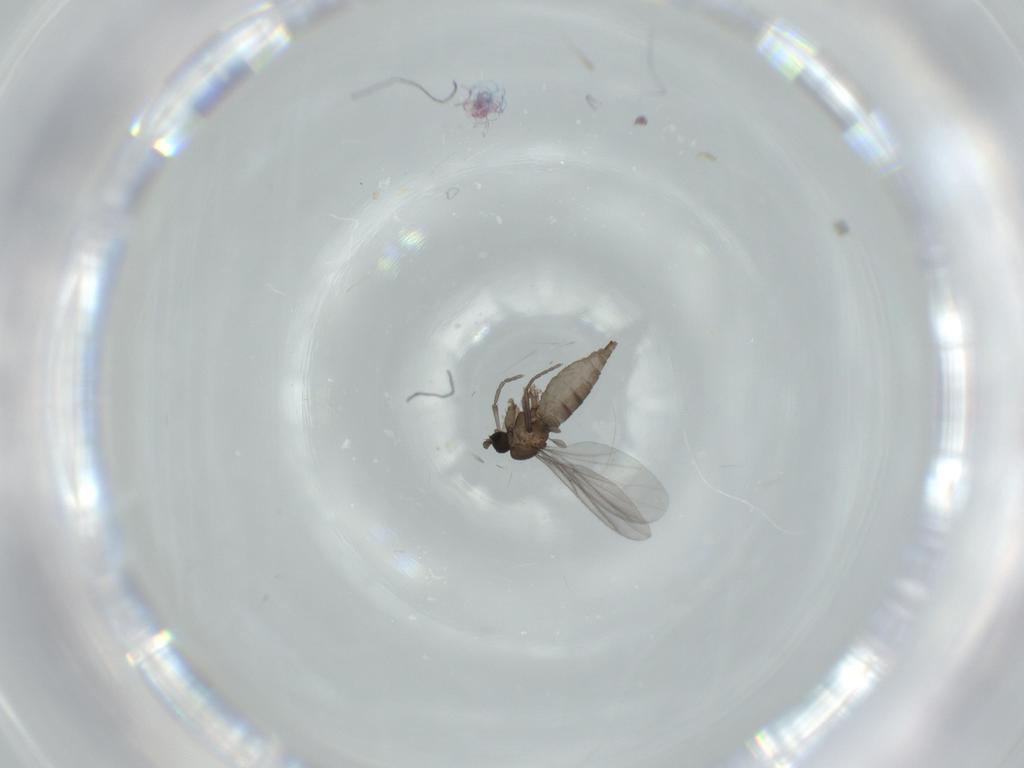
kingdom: Animalia
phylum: Arthropoda
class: Insecta
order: Diptera
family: Sciaridae
